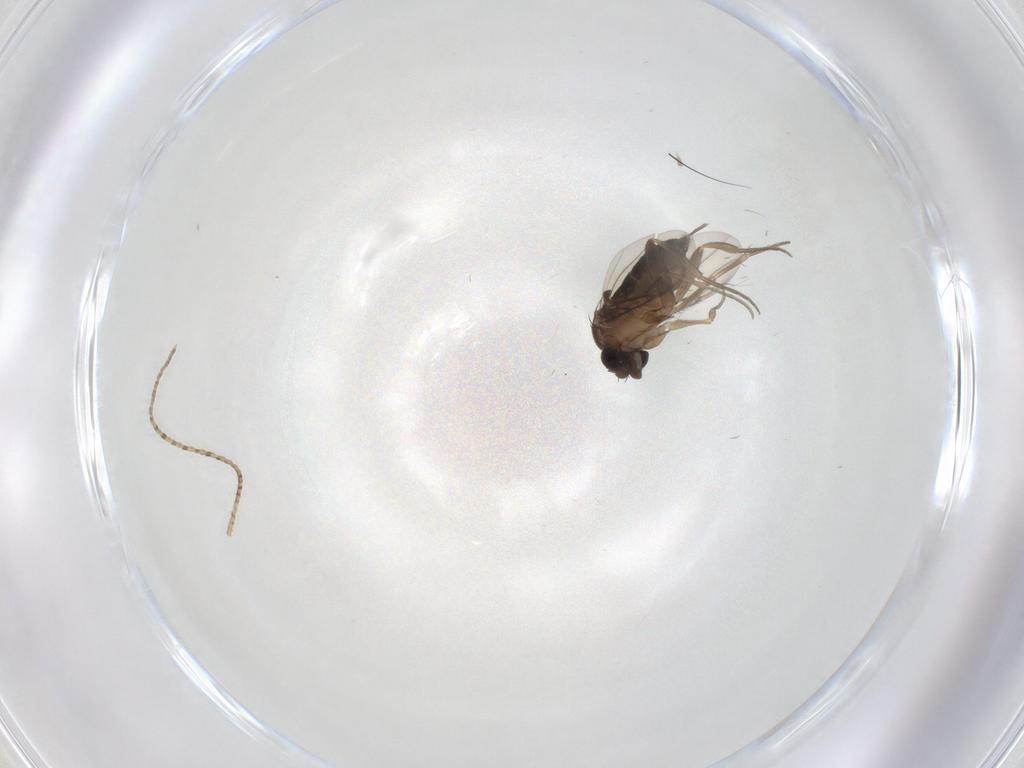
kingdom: Animalia
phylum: Arthropoda
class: Insecta
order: Diptera
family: Phoridae
